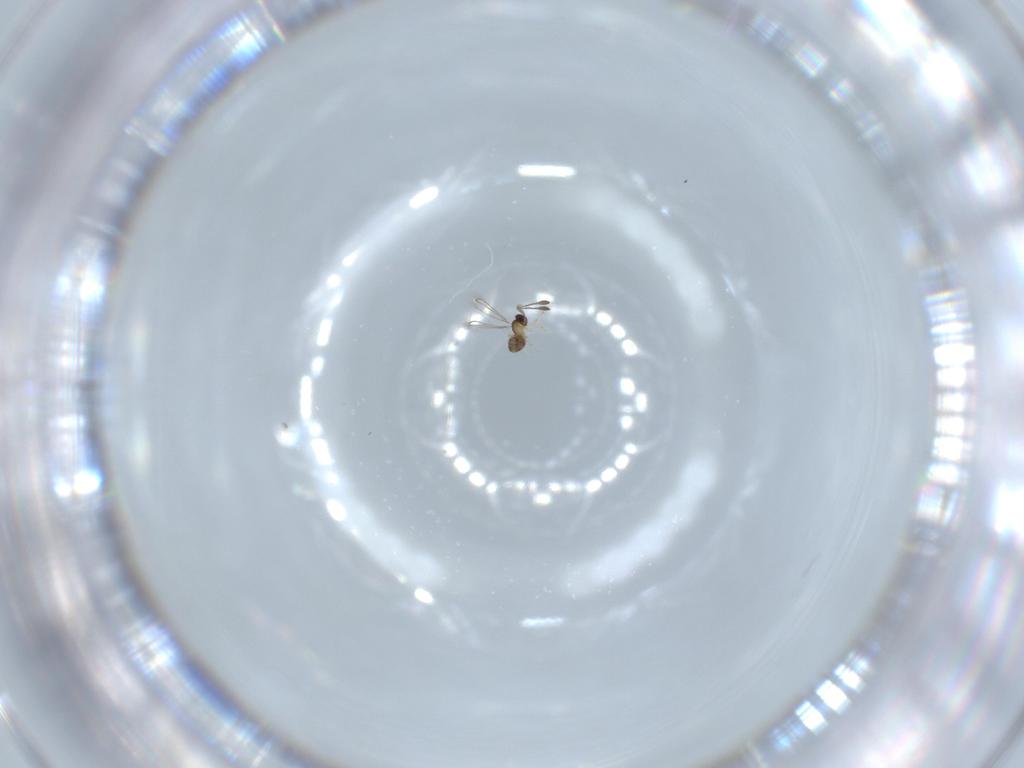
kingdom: Animalia
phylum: Arthropoda
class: Insecta
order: Hymenoptera
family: Mymaridae
